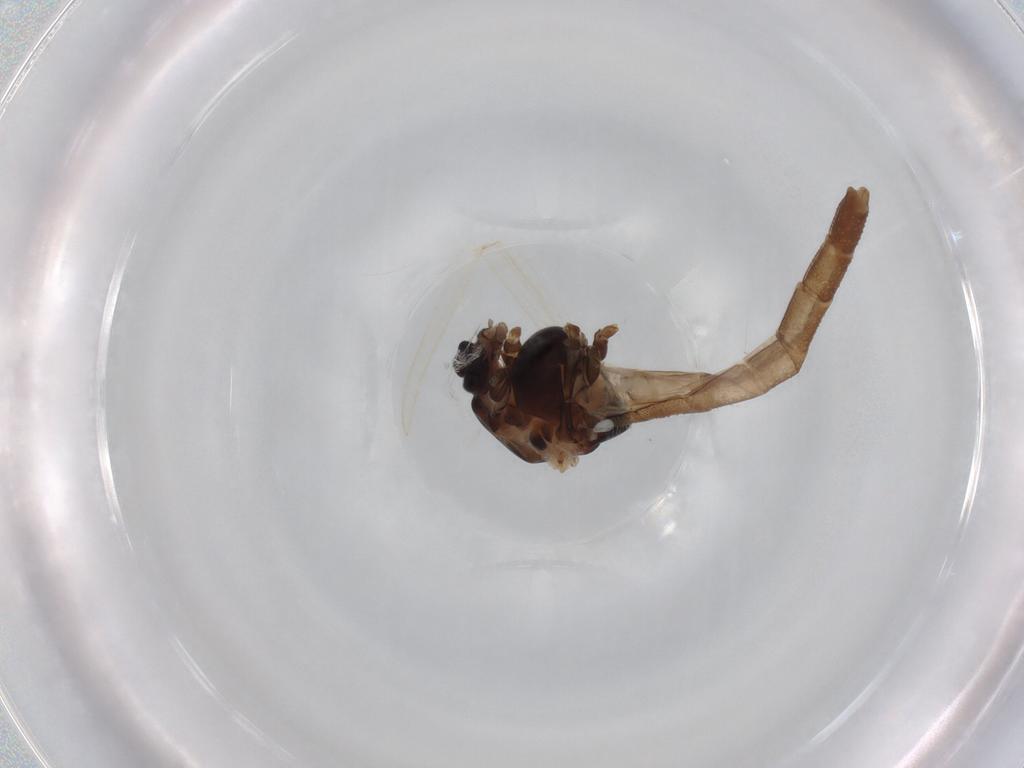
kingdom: Animalia
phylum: Arthropoda
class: Insecta
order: Diptera
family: Chironomidae
